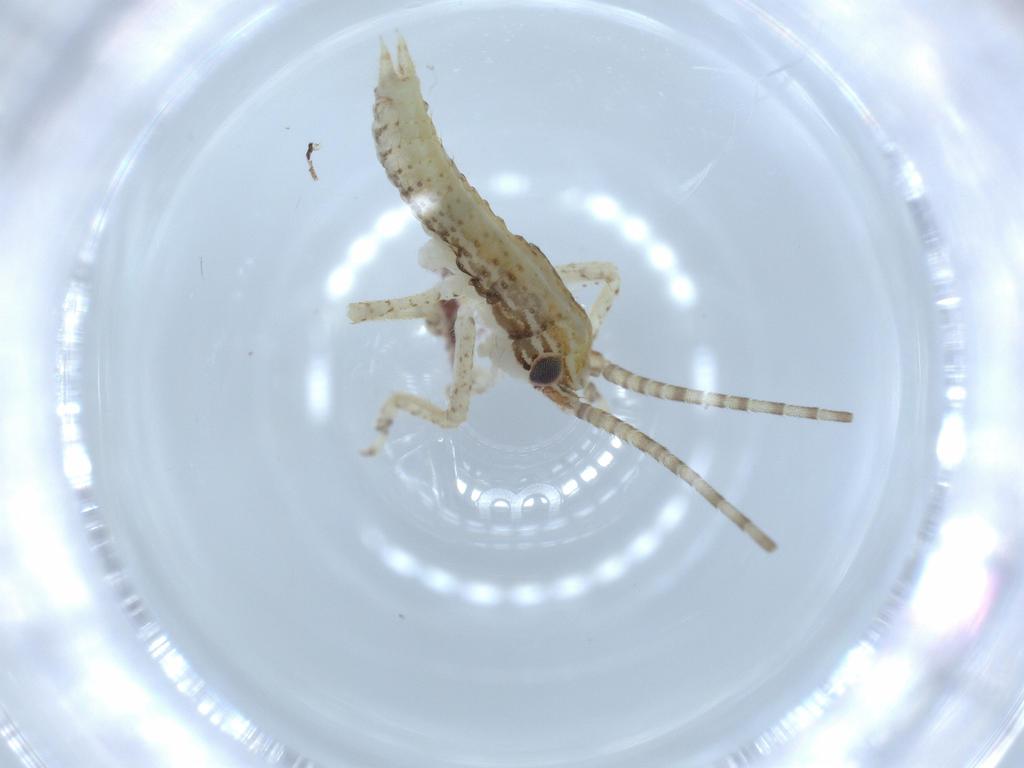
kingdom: Animalia
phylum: Arthropoda
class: Insecta
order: Orthoptera
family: Gryllidae
